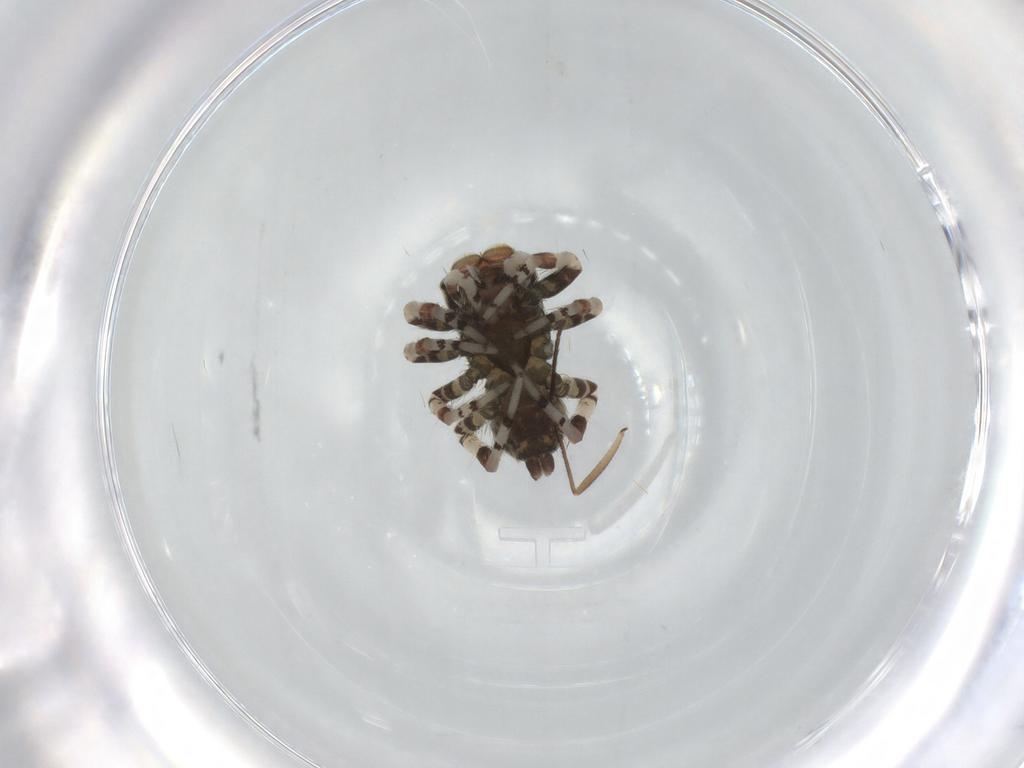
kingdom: Animalia
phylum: Arthropoda
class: Arachnida
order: Araneae
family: Salticidae
